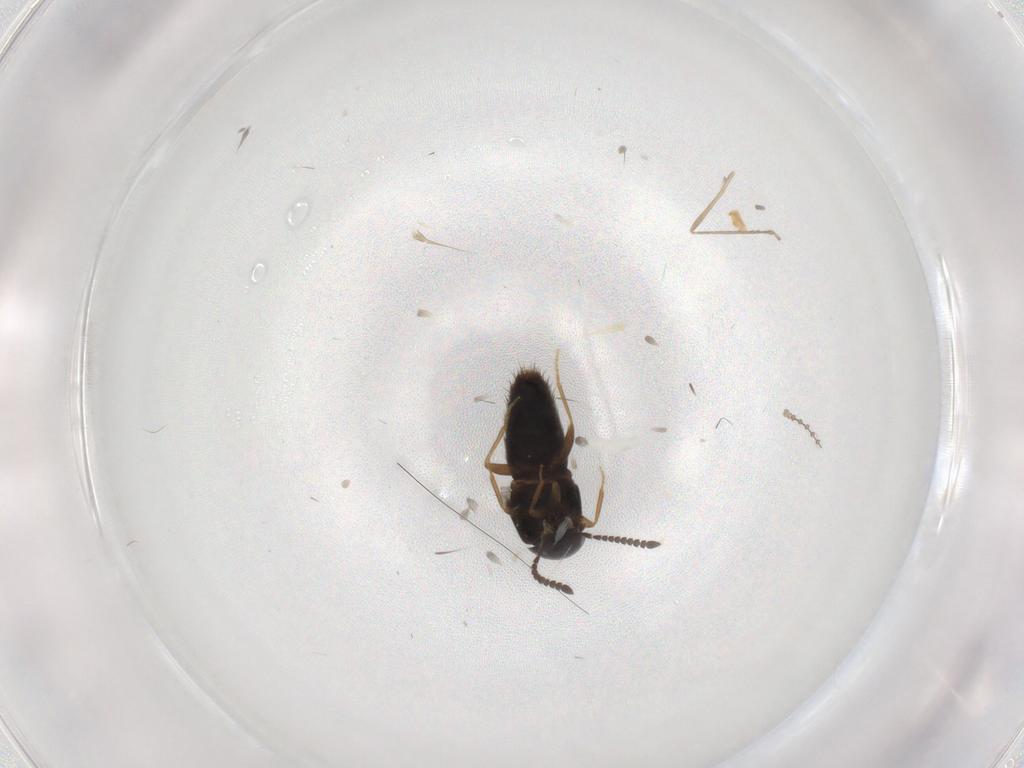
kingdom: Animalia
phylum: Arthropoda
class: Insecta
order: Coleoptera
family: Staphylinidae
